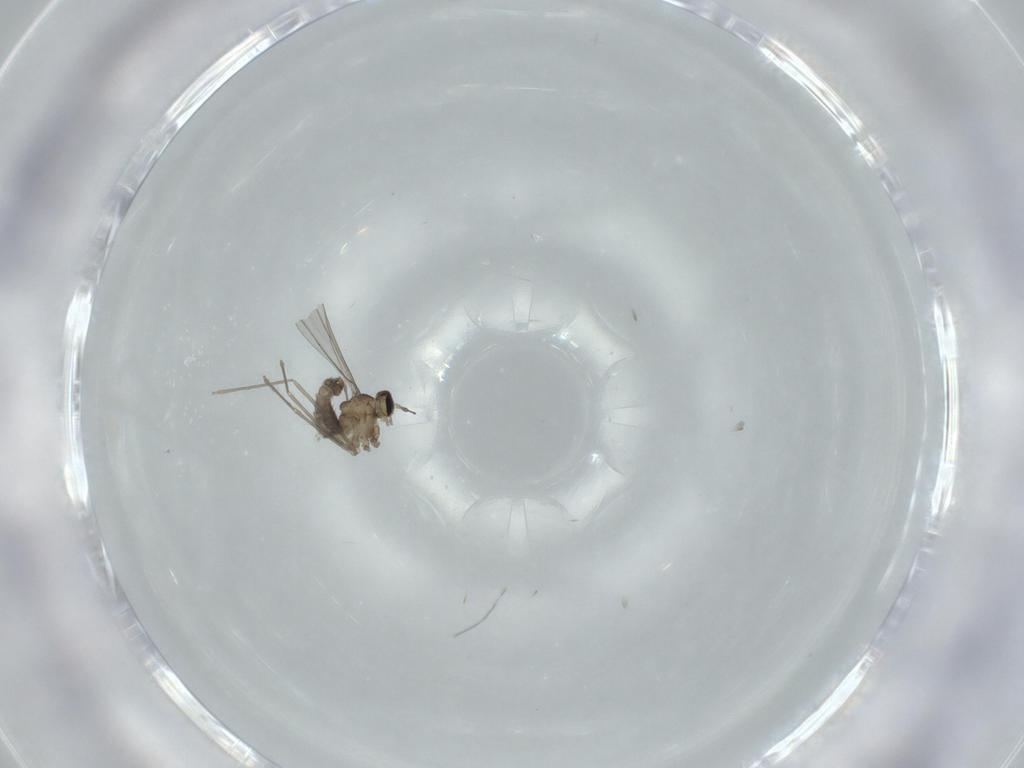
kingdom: Animalia
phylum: Arthropoda
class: Insecta
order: Diptera
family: Cecidomyiidae
